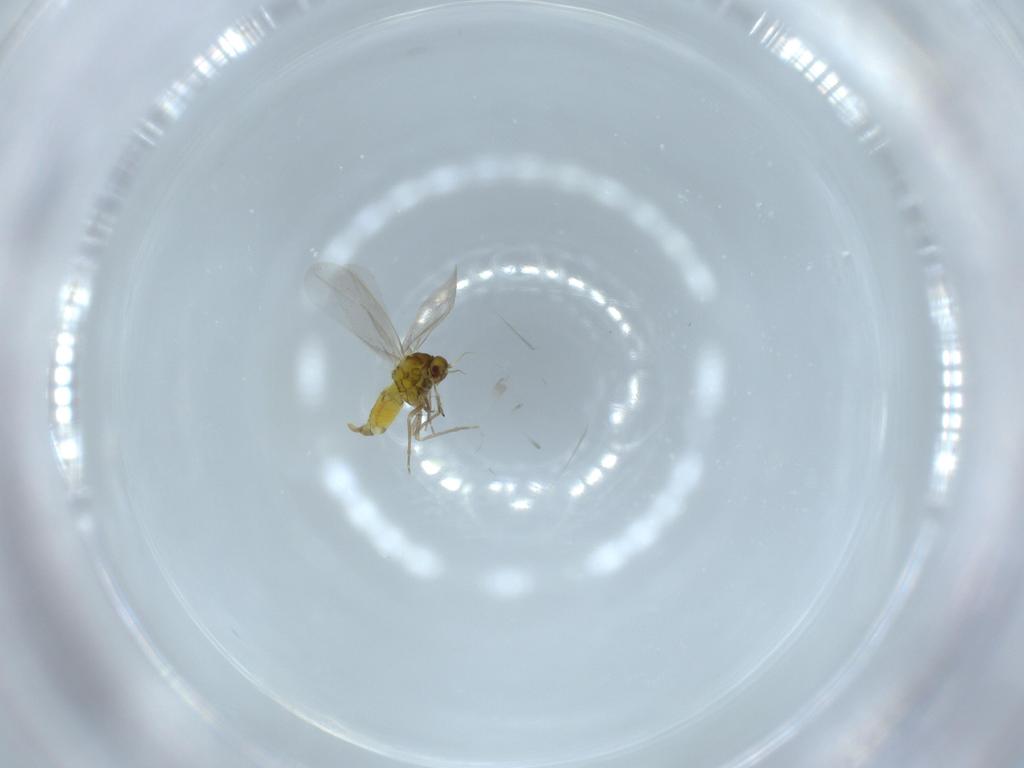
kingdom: Animalia
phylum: Arthropoda
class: Insecta
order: Hemiptera
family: Aleyrodidae
